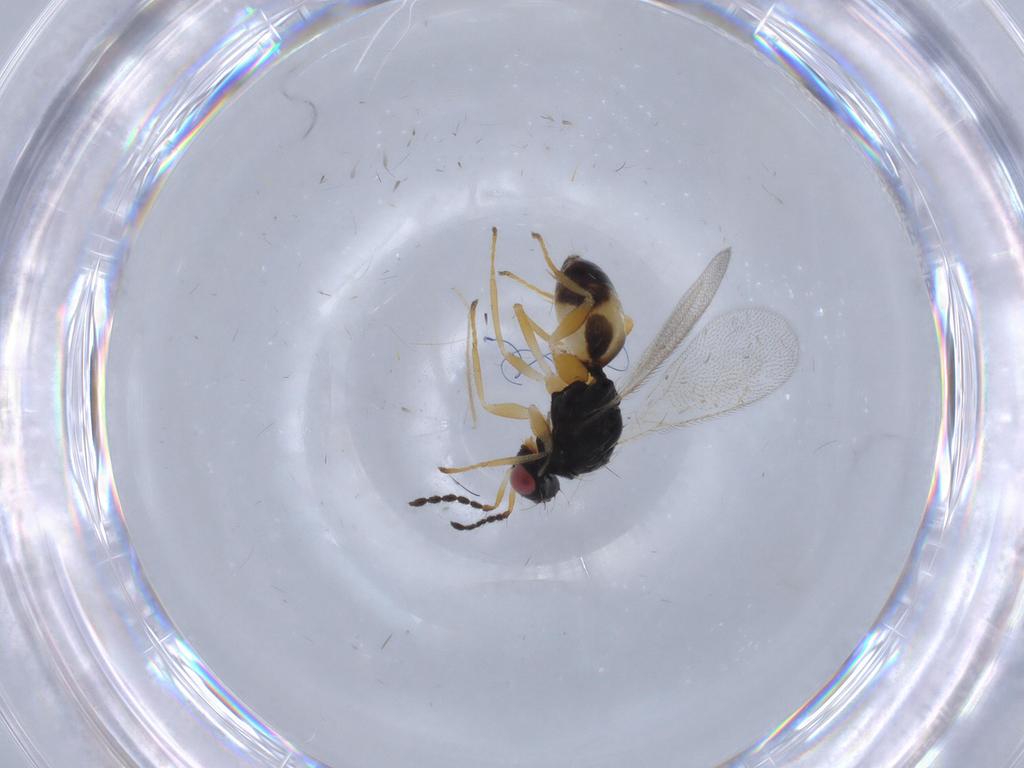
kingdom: Animalia
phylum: Arthropoda
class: Insecta
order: Hymenoptera
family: Eulophidae
